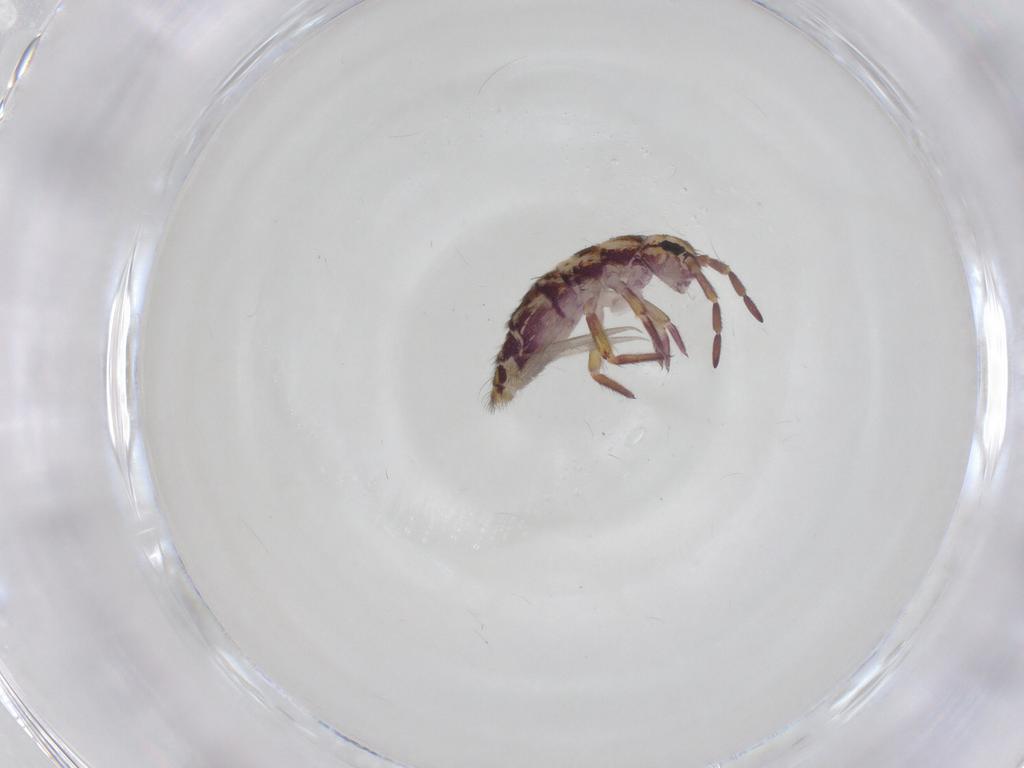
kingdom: Animalia
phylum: Arthropoda
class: Collembola
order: Entomobryomorpha
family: Isotomidae
